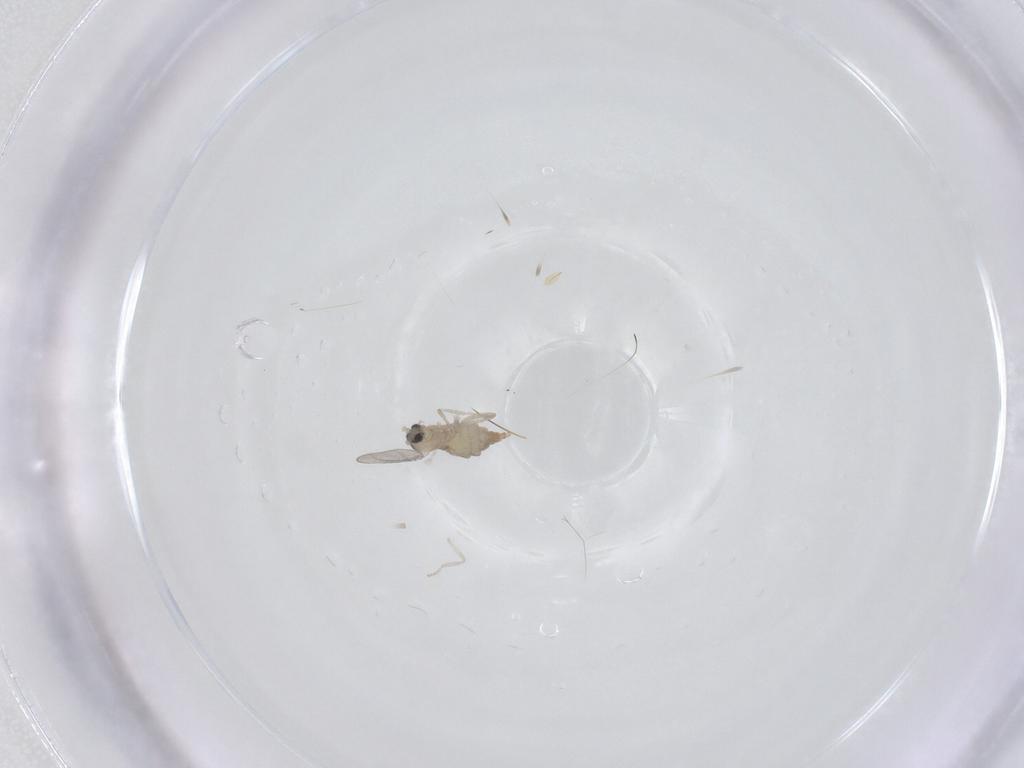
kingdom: Animalia
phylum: Arthropoda
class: Insecta
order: Diptera
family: Cecidomyiidae
